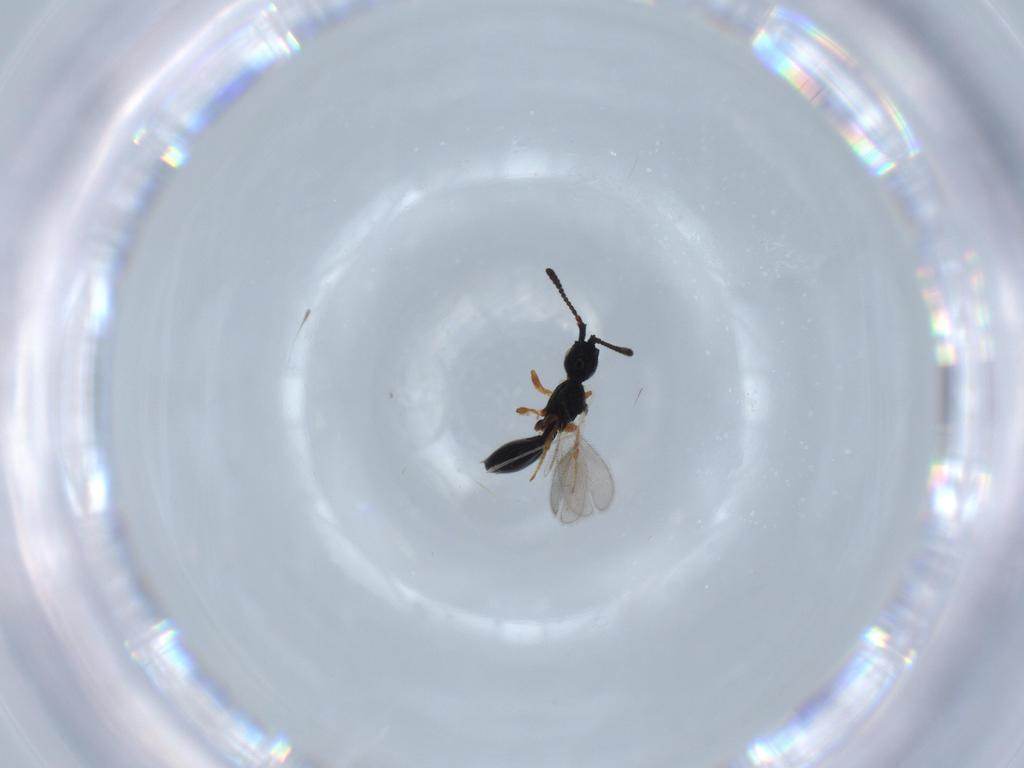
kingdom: Animalia
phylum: Arthropoda
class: Insecta
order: Hymenoptera
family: Diapriidae
